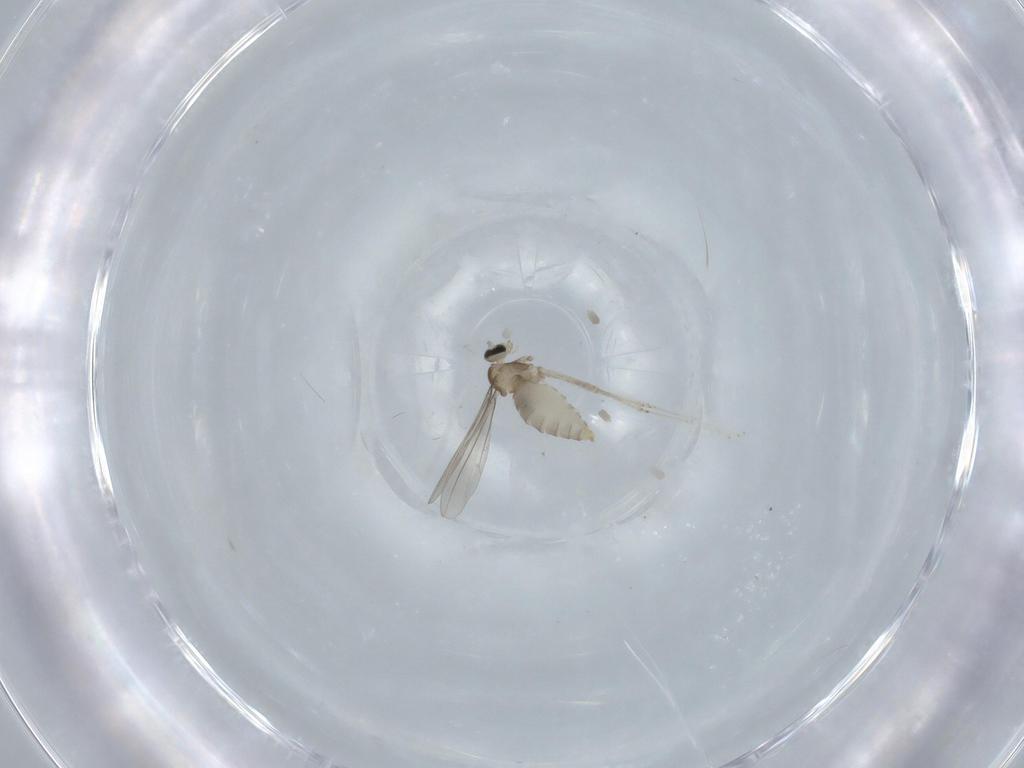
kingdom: Animalia
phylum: Arthropoda
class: Insecta
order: Diptera
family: Cecidomyiidae
